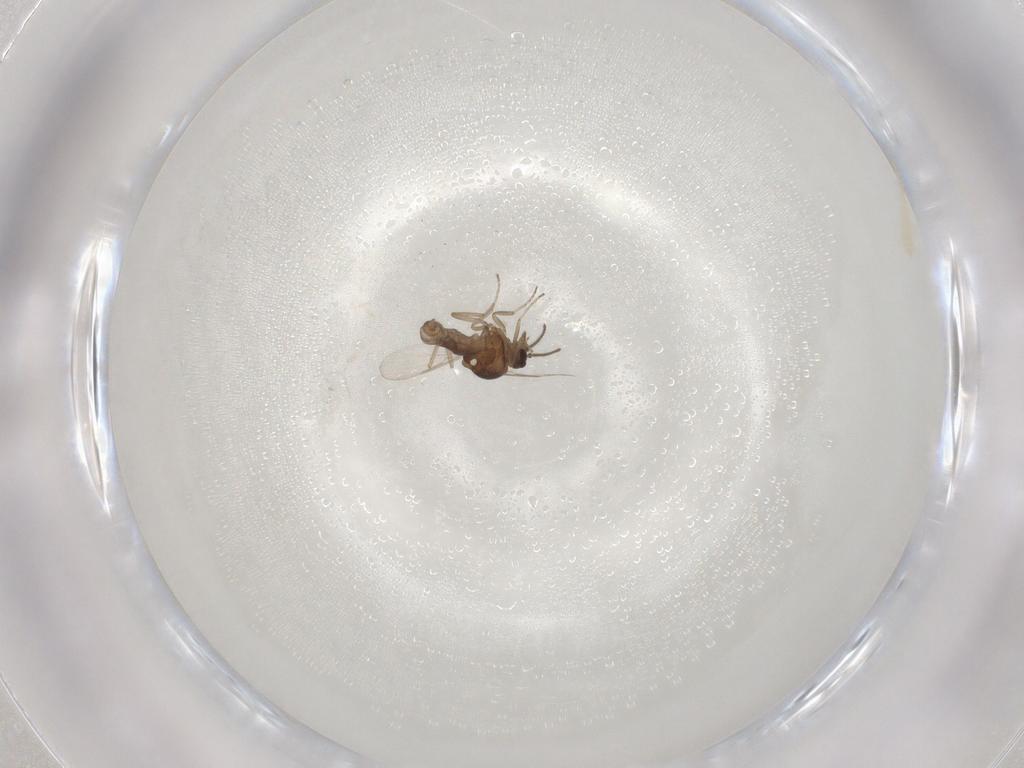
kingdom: Animalia
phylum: Arthropoda
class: Insecta
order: Diptera
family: Ceratopogonidae
